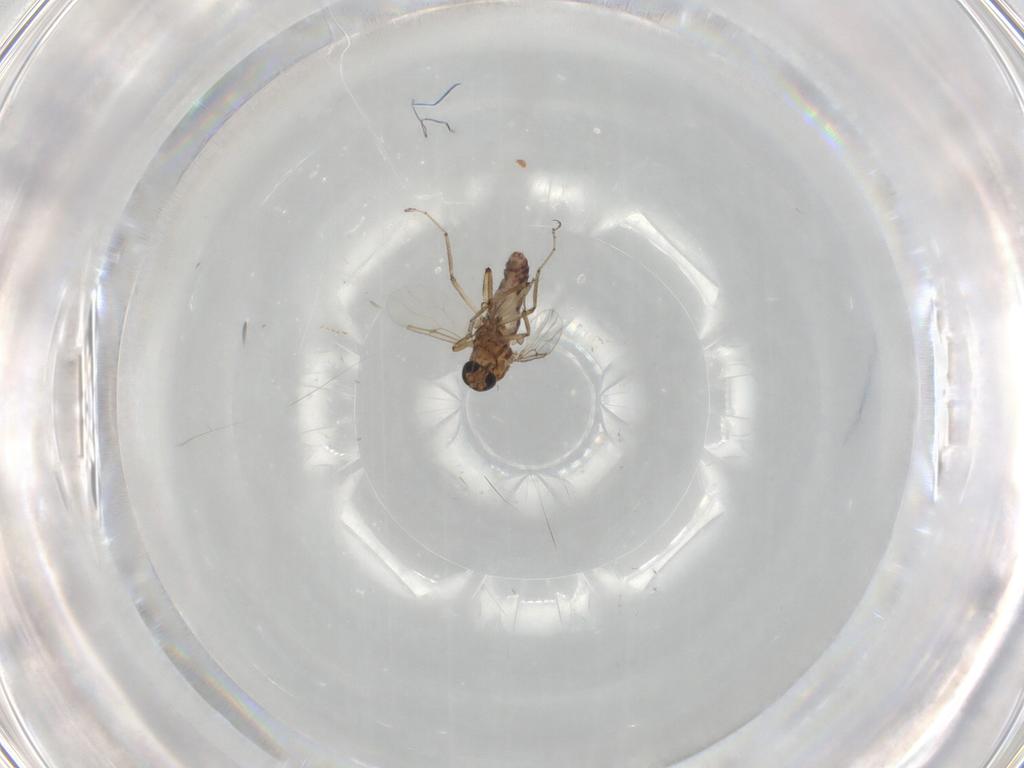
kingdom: Animalia
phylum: Arthropoda
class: Insecta
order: Diptera
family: Ceratopogonidae
